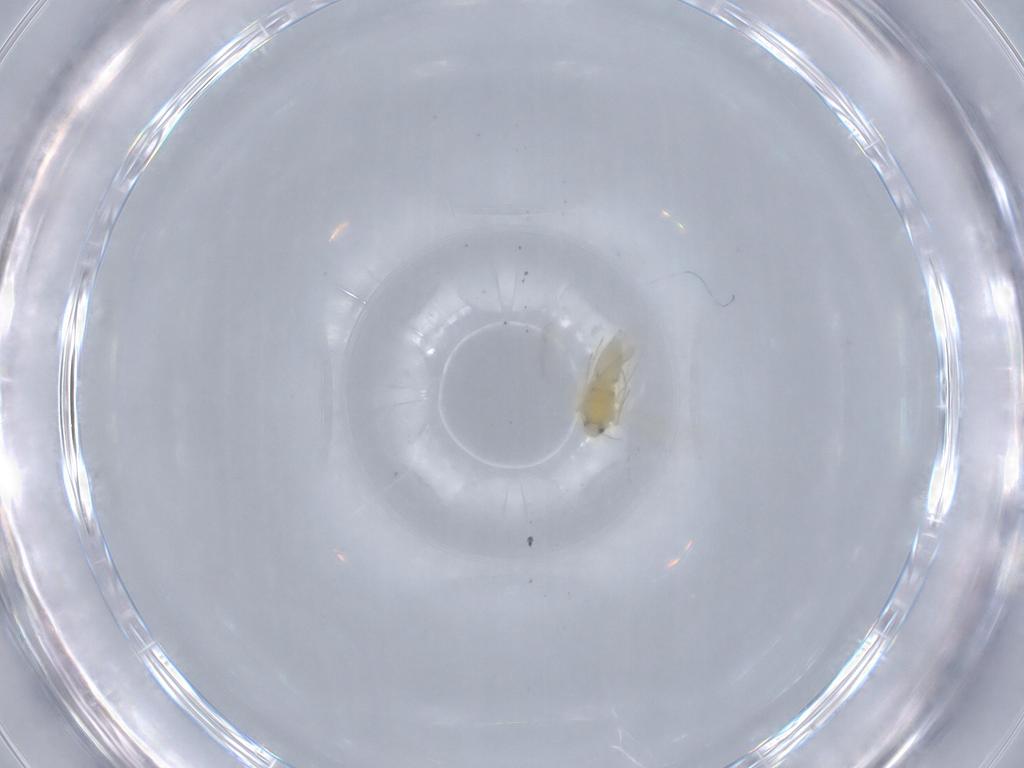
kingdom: Animalia
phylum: Arthropoda
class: Insecta
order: Hemiptera
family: Aleyrodidae
